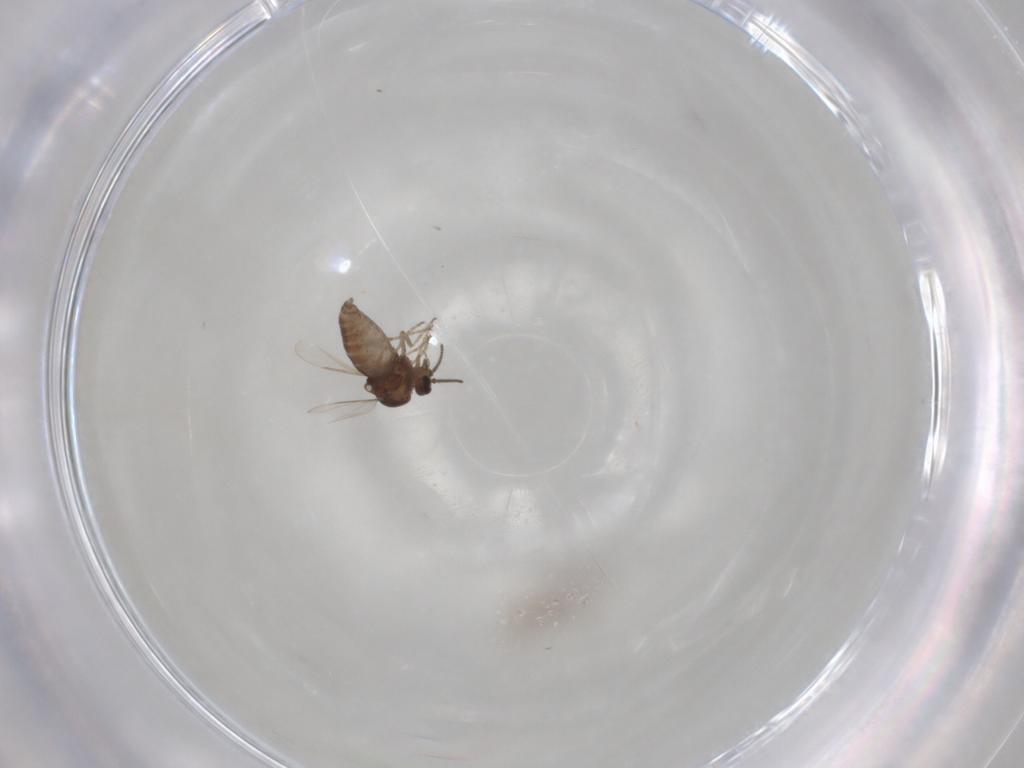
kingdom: Animalia
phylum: Arthropoda
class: Insecta
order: Diptera
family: Ceratopogonidae
